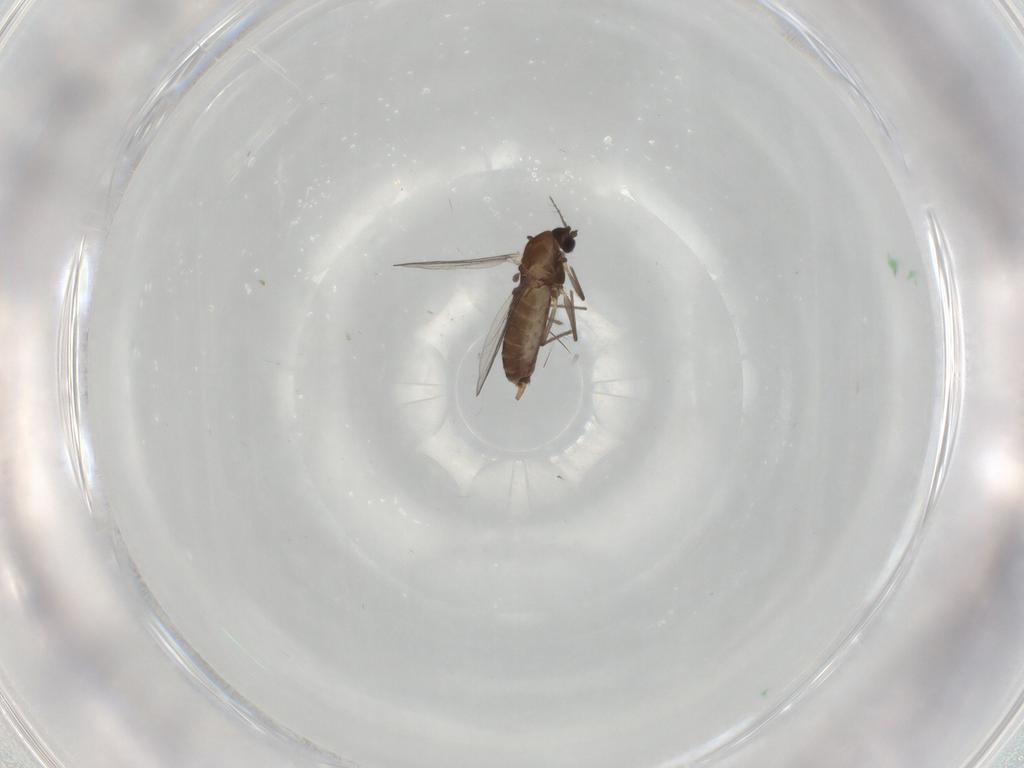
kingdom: Animalia
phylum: Arthropoda
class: Insecta
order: Diptera
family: Chironomidae
